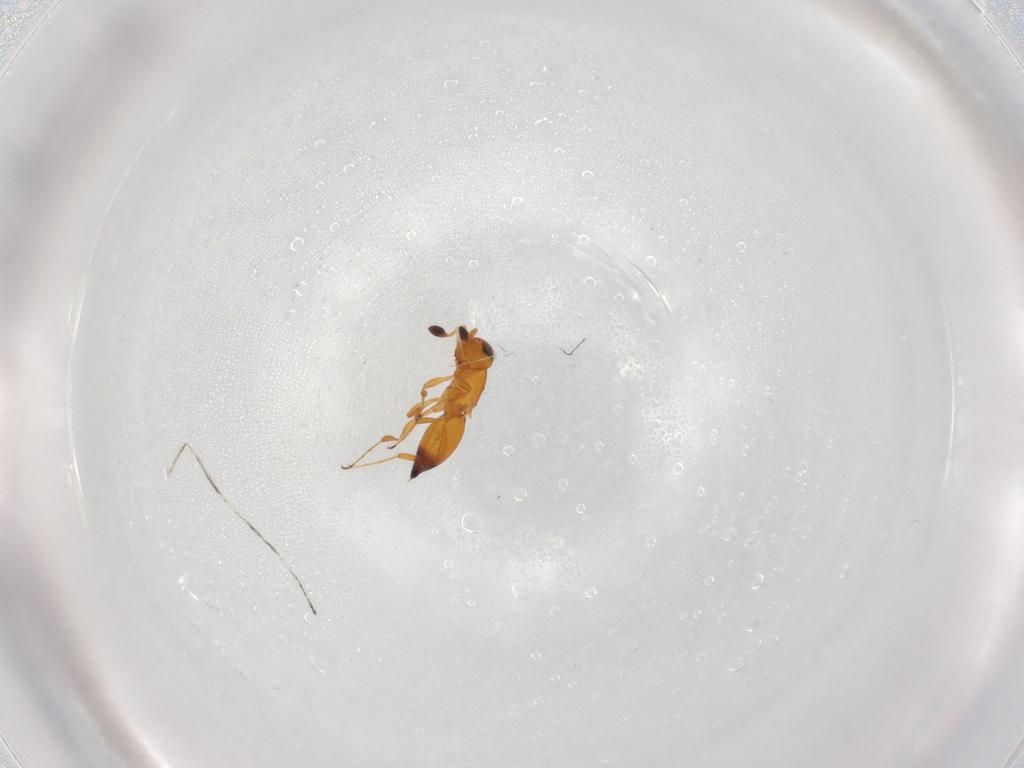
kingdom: Animalia
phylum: Arthropoda
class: Insecta
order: Hymenoptera
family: Platygastridae
